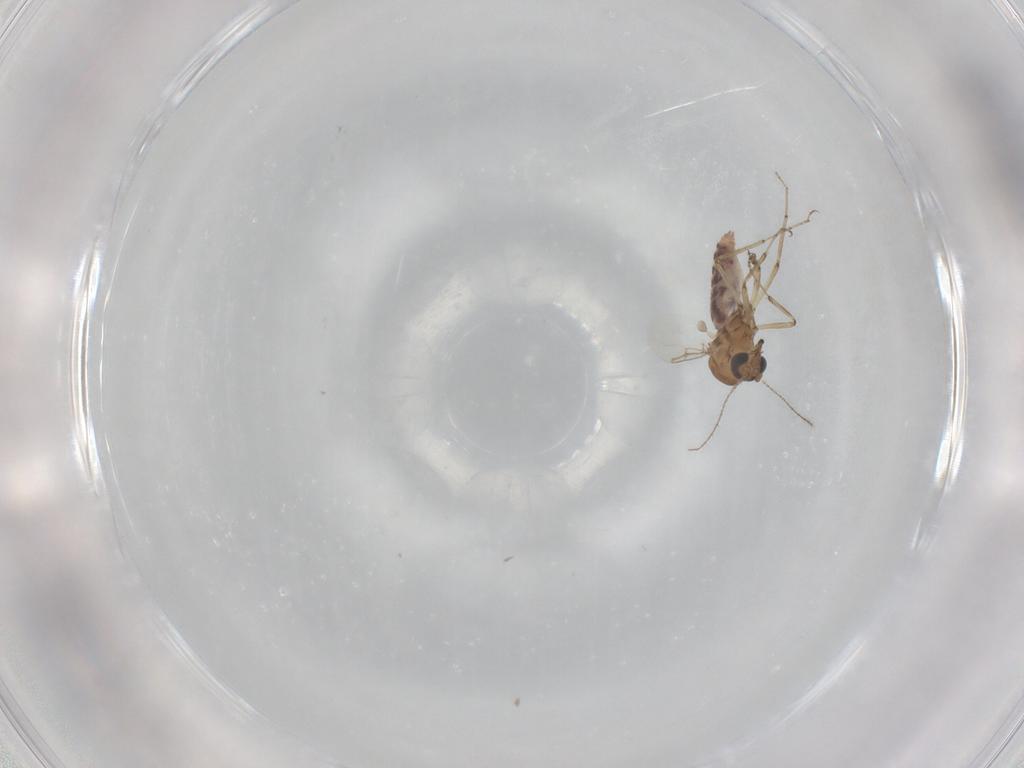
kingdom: Animalia
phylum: Arthropoda
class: Insecta
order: Diptera
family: Ceratopogonidae
